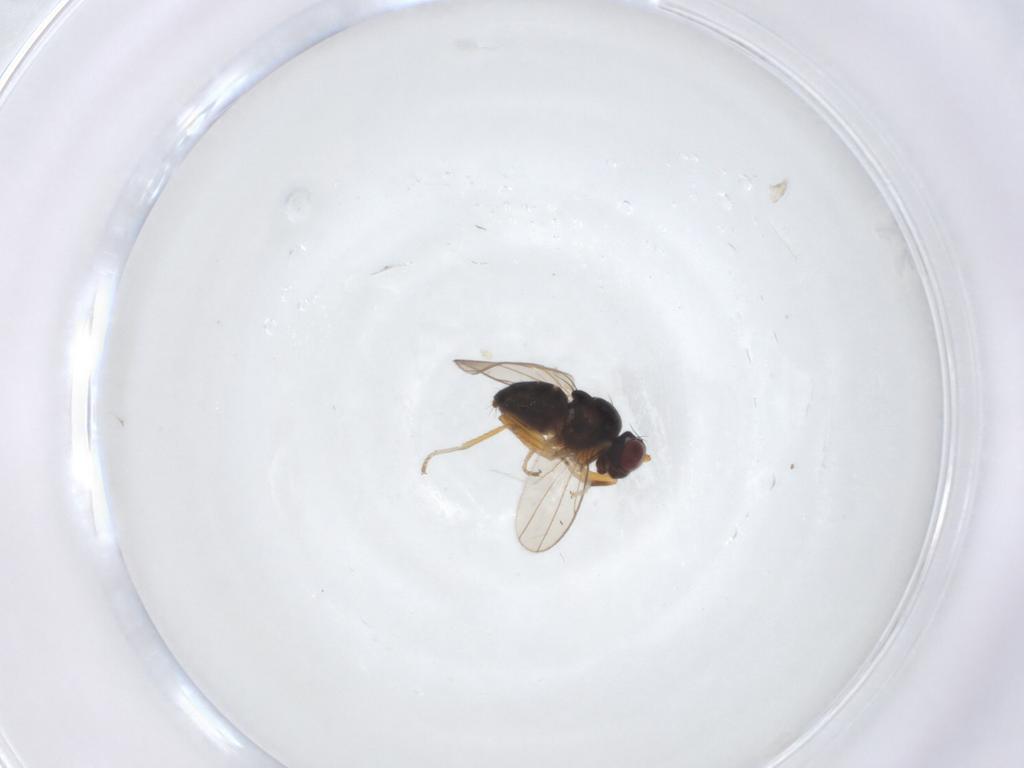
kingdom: Animalia
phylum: Arthropoda
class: Insecta
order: Diptera
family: Ephydridae
